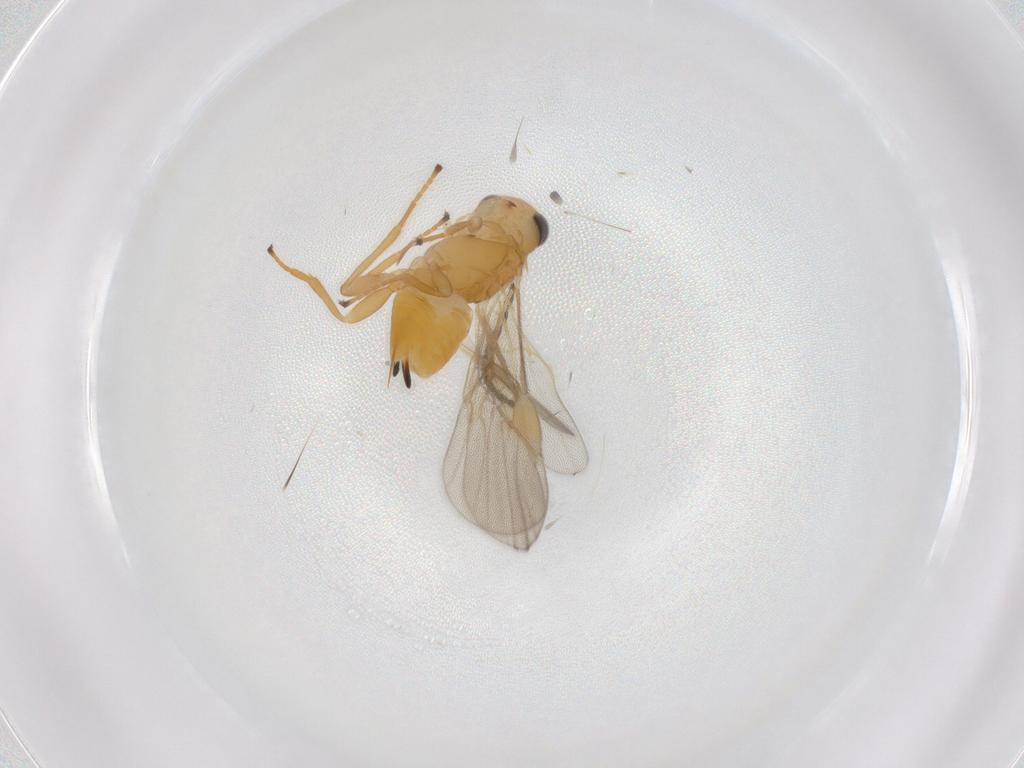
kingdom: Animalia
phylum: Arthropoda
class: Insecta
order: Hymenoptera
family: Braconidae
